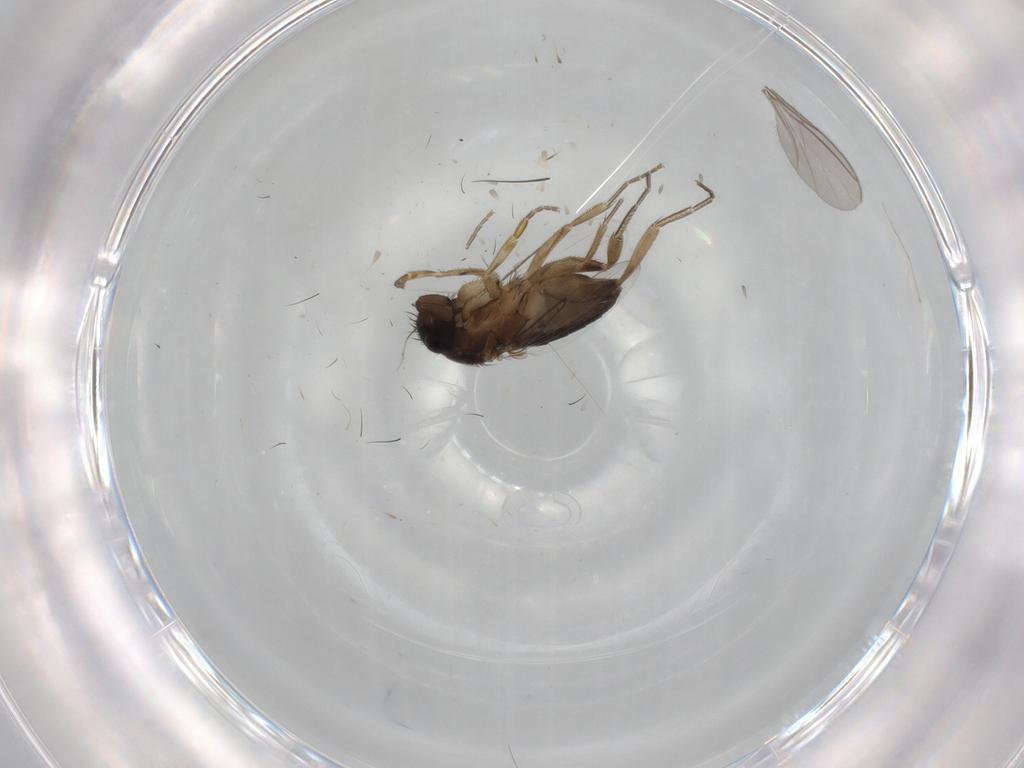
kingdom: Animalia
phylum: Arthropoda
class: Insecta
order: Diptera
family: Phoridae
